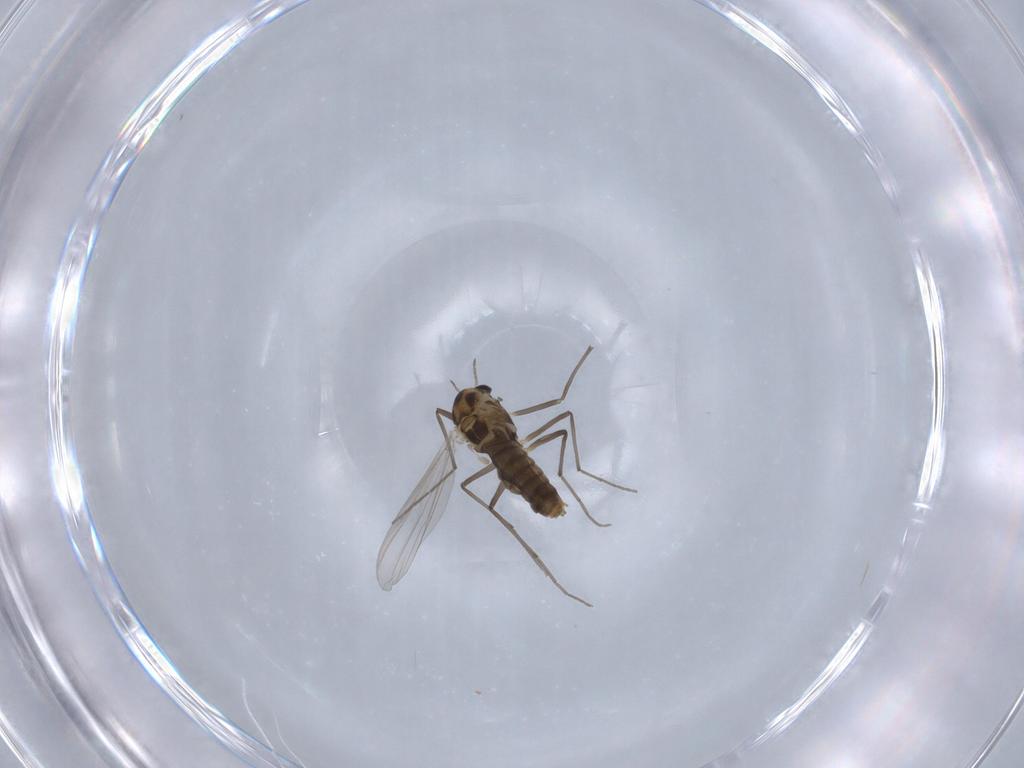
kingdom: Animalia
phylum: Arthropoda
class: Insecta
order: Diptera
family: Chironomidae
